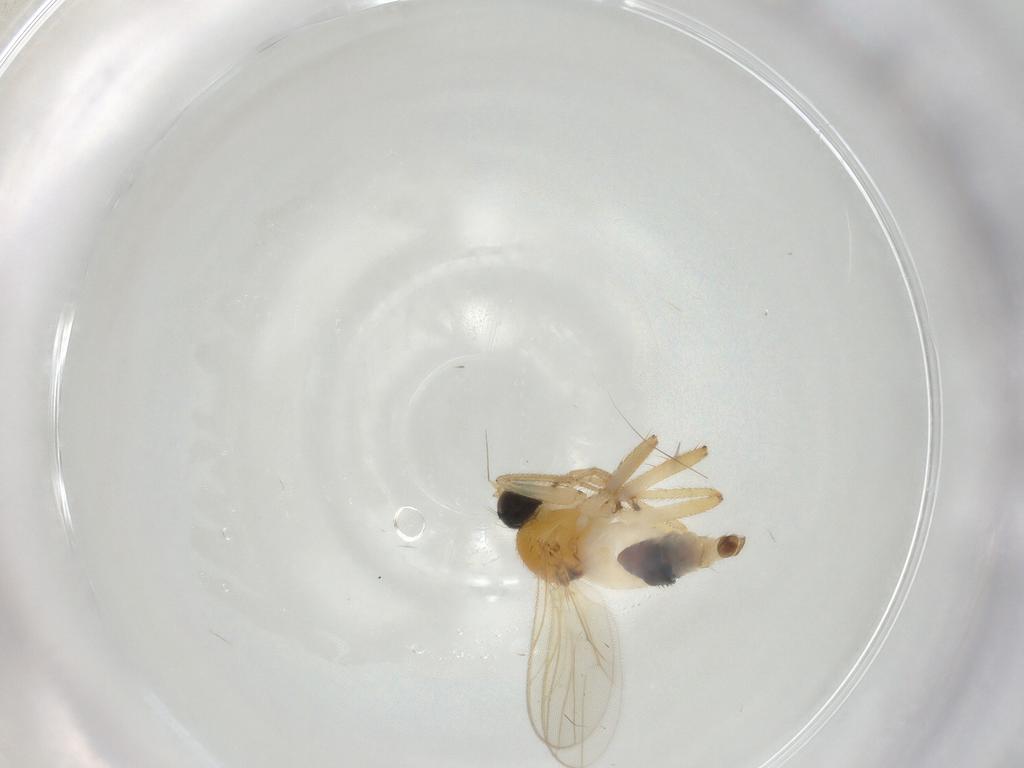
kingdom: Animalia
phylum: Arthropoda
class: Insecta
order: Diptera
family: Hybotidae
